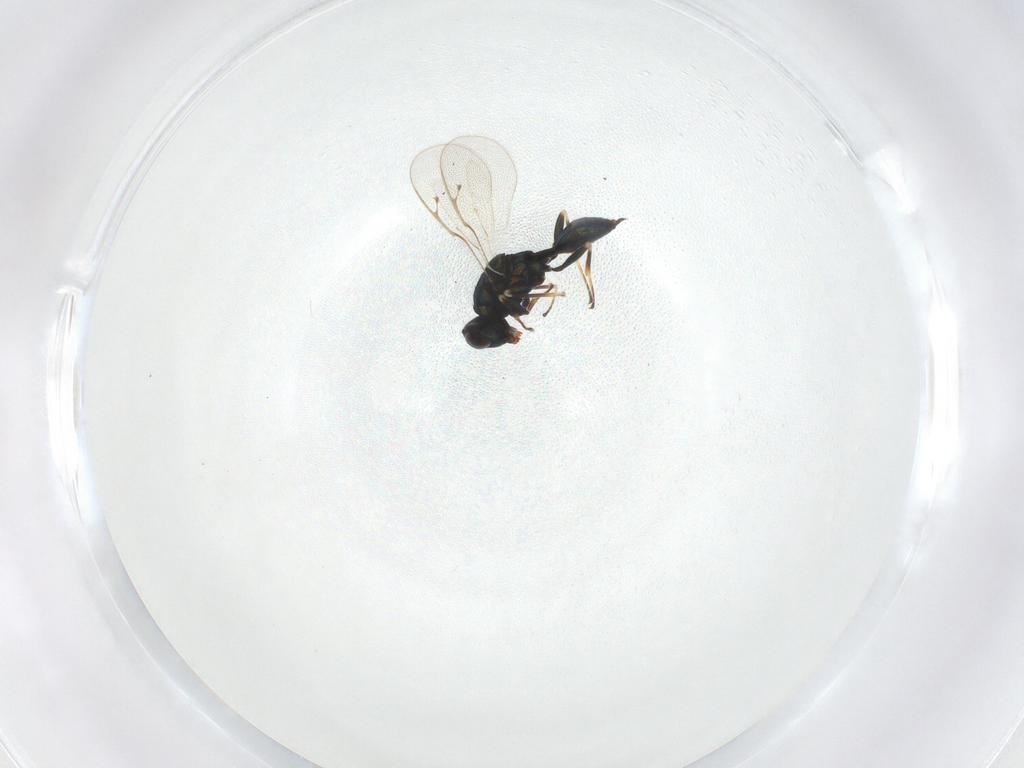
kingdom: Animalia
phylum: Arthropoda
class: Insecta
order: Hymenoptera
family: Pteromalidae
